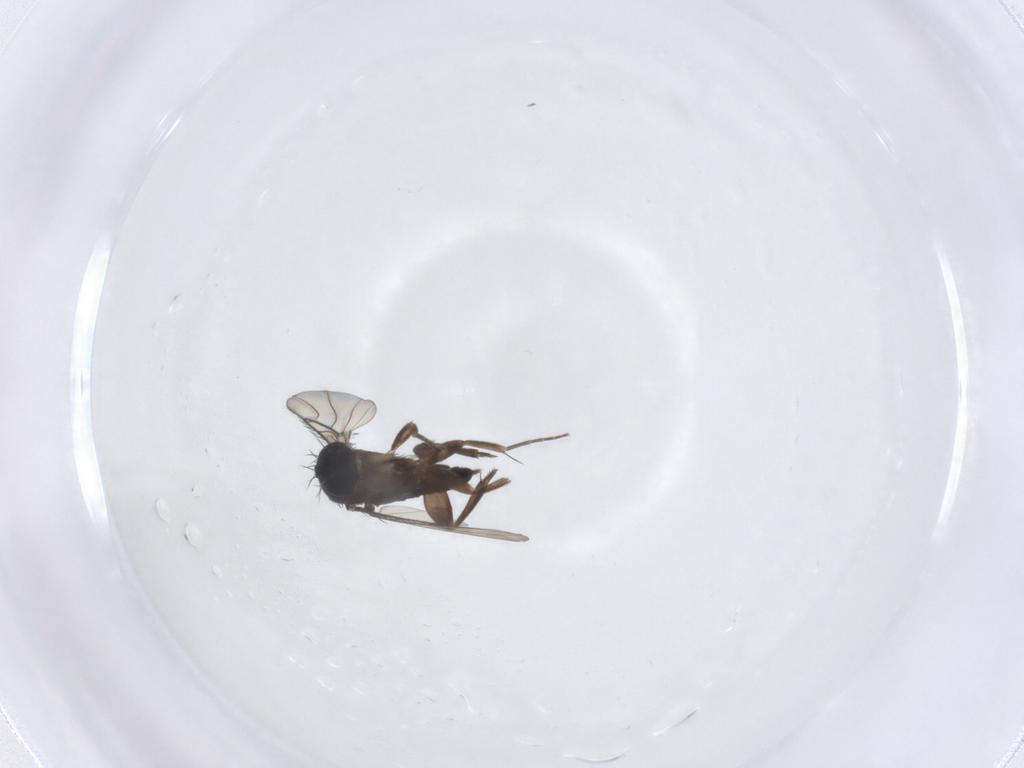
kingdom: Animalia
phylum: Arthropoda
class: Insecta
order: Diptera
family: Phoridae
